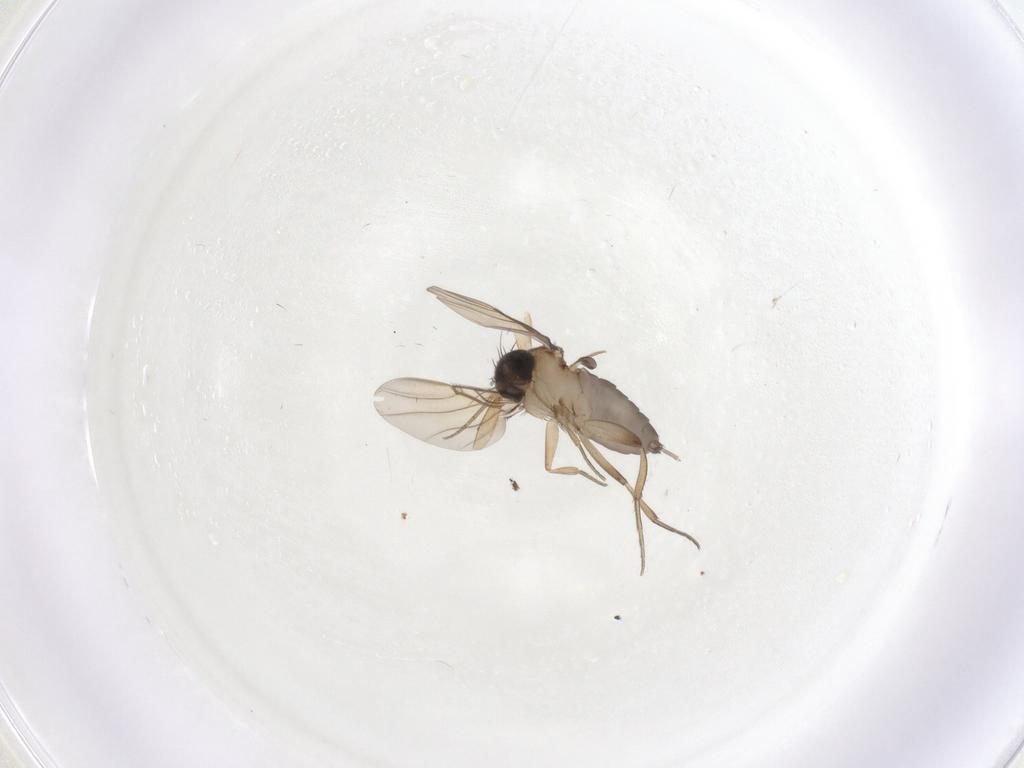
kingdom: Animalia
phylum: Arthropoda
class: Insecta
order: Diptera
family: Phoridae
